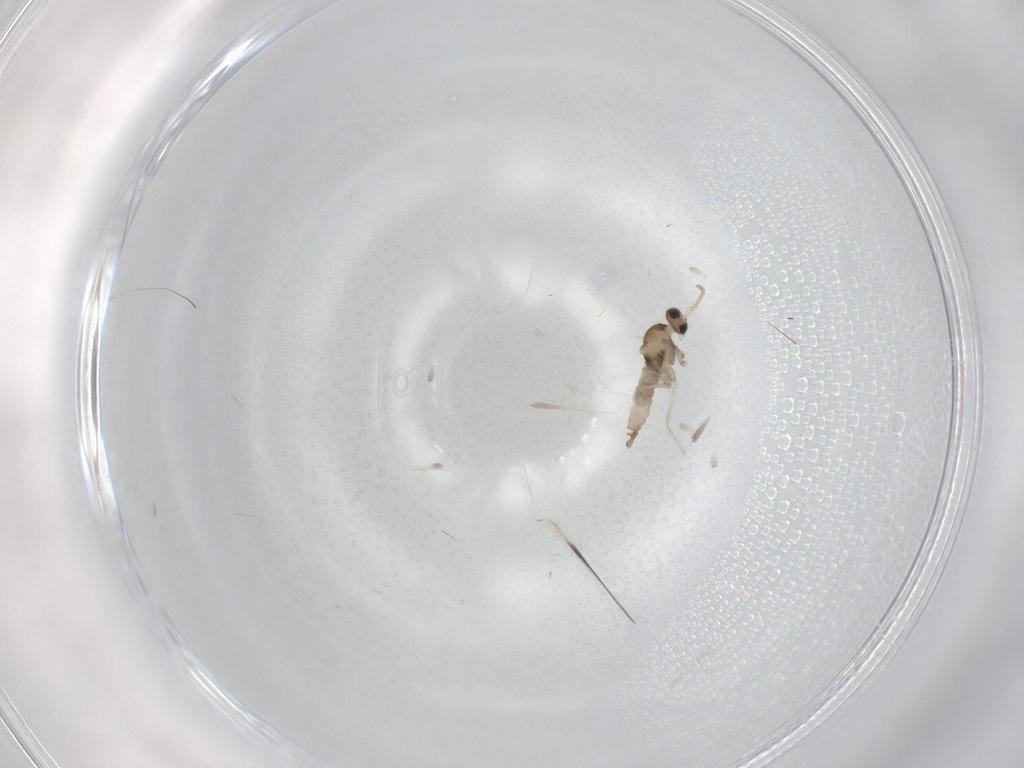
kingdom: Animalia
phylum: Arthropoda
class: Insecta
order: Diptera
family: Cecidomyiidae
